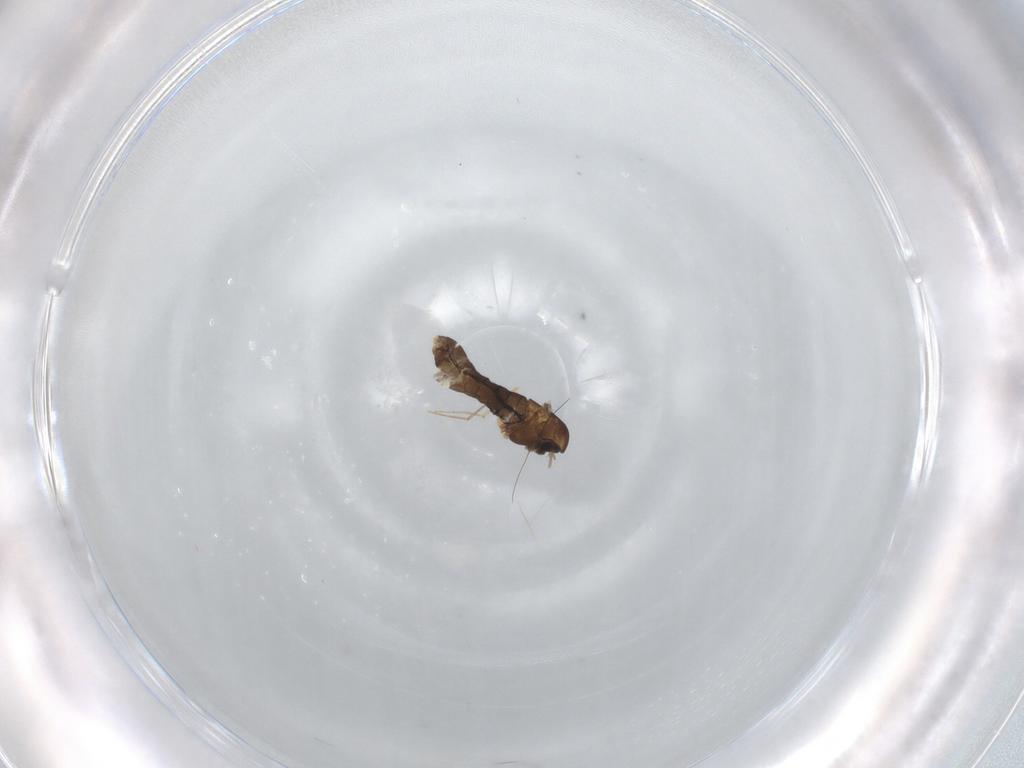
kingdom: Animalia
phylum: Arthropoda
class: Insecta
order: Diptera
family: Chironomidae
